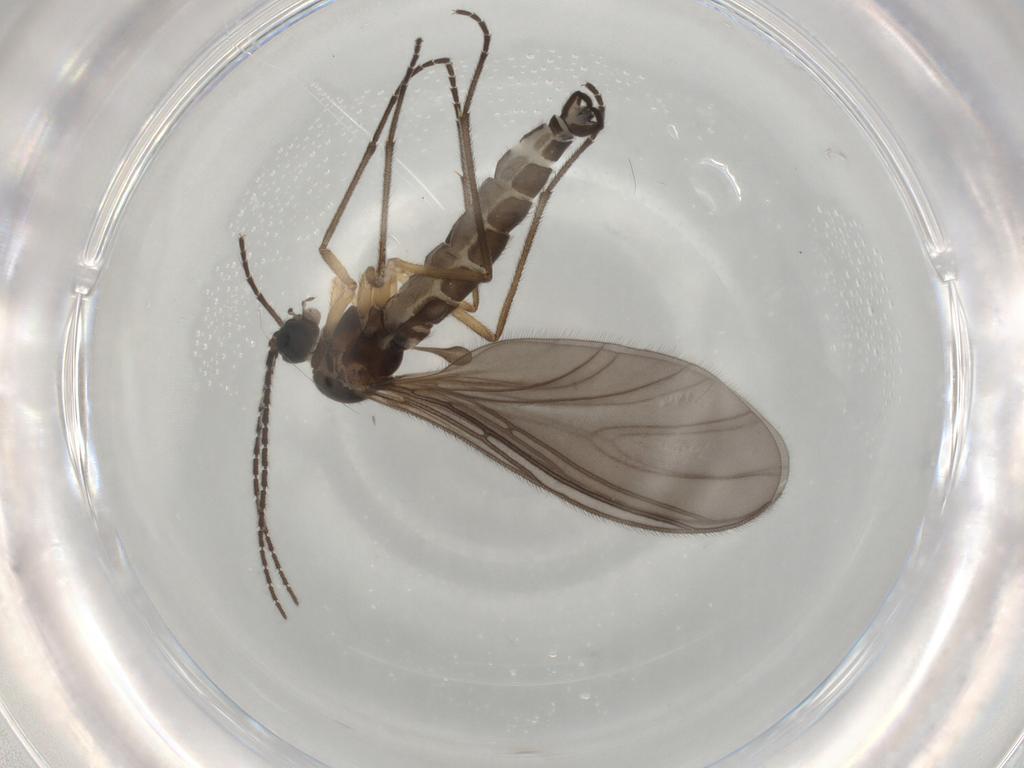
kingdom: Animalia
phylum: Arthropoda
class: Insecta
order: Diptera
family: Sciaridae
